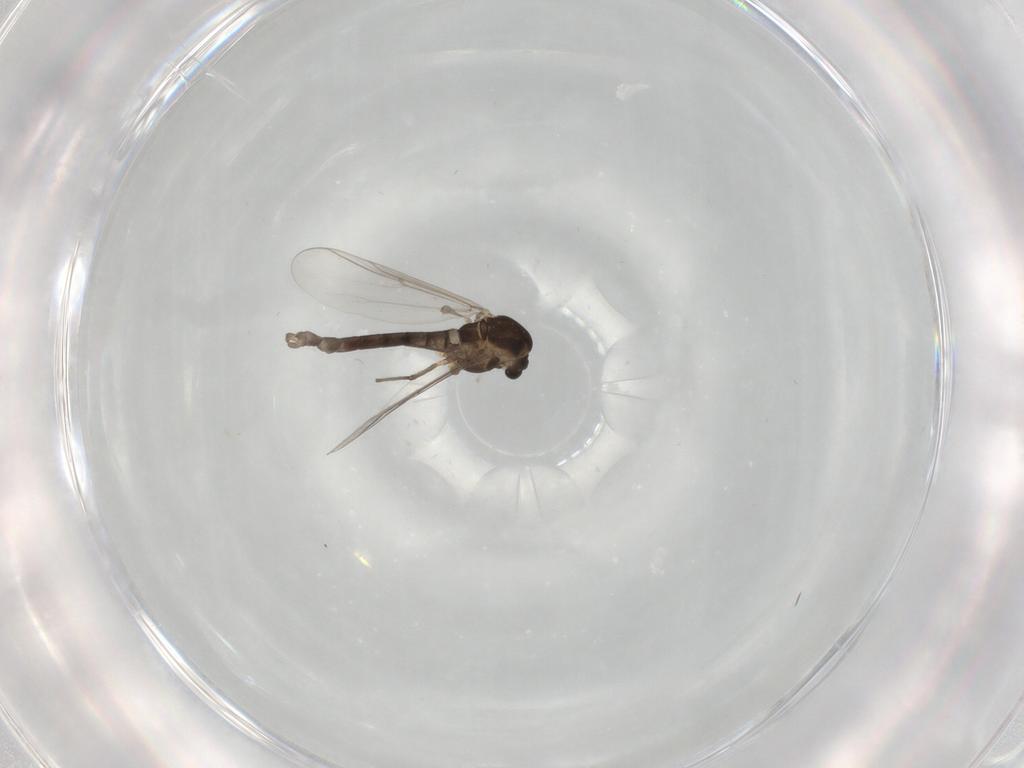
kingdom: Animalia
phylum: Arthropoda
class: Insecta
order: Diptera
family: Chironomidae
